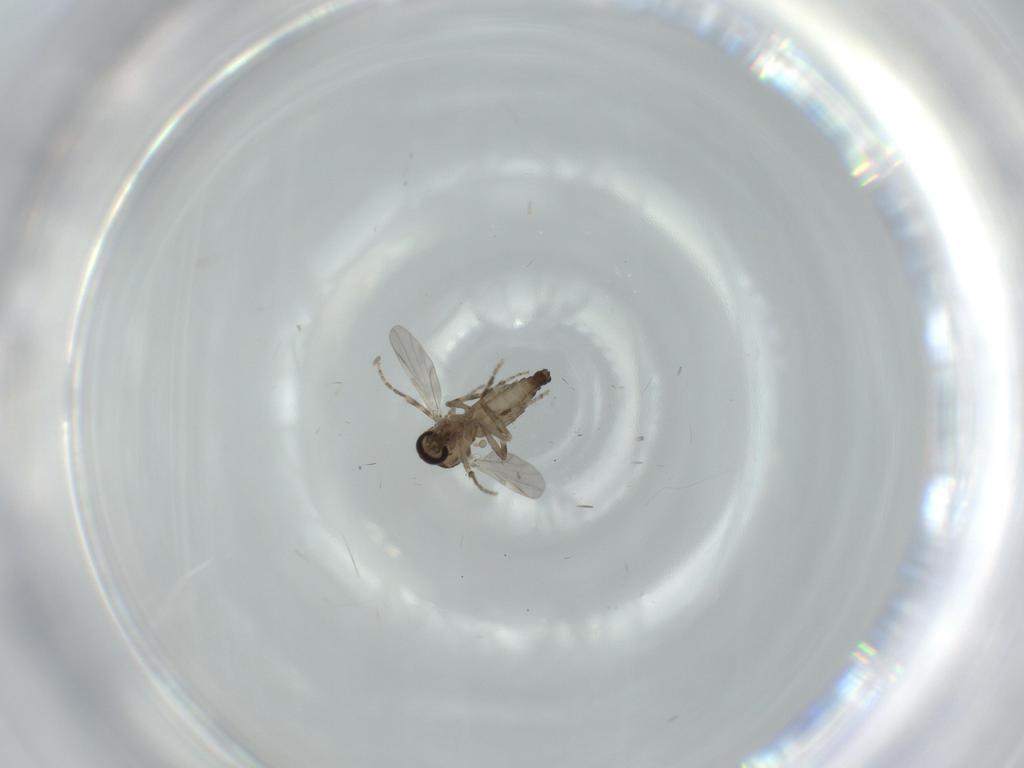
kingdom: Animalia
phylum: Arthropoda
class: Insecta
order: Diptera
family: Ceratopogonidae
